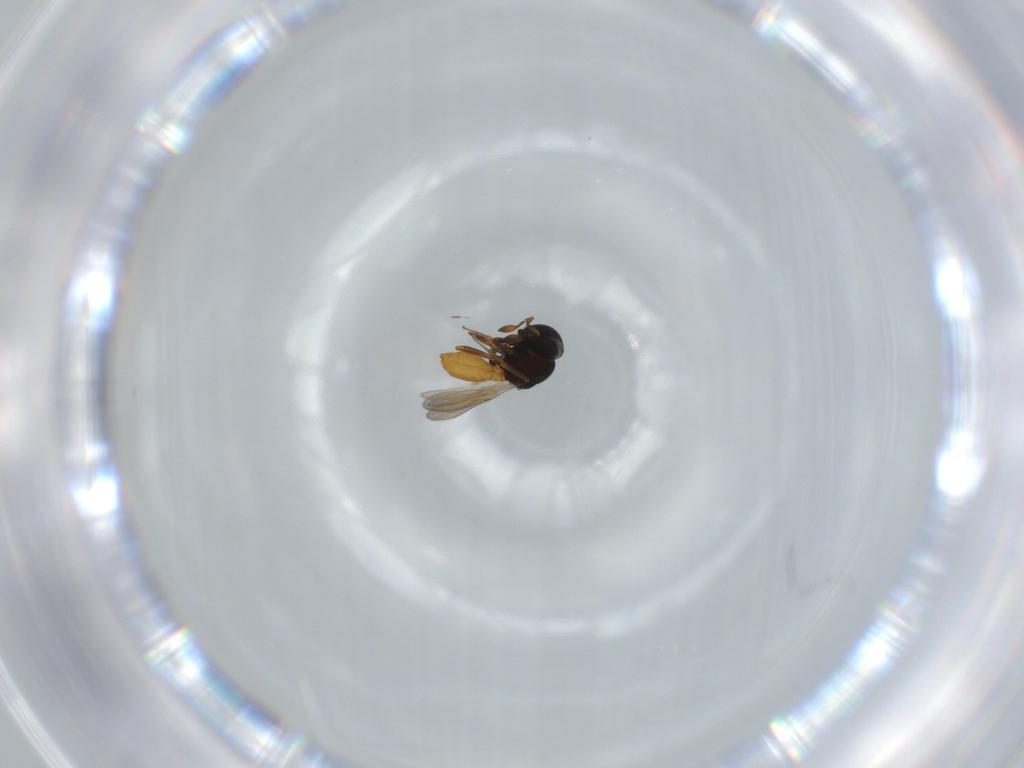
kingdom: Animalia
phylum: Arthropoda
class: Insecta
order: Hymenoptera
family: Scelionidae
